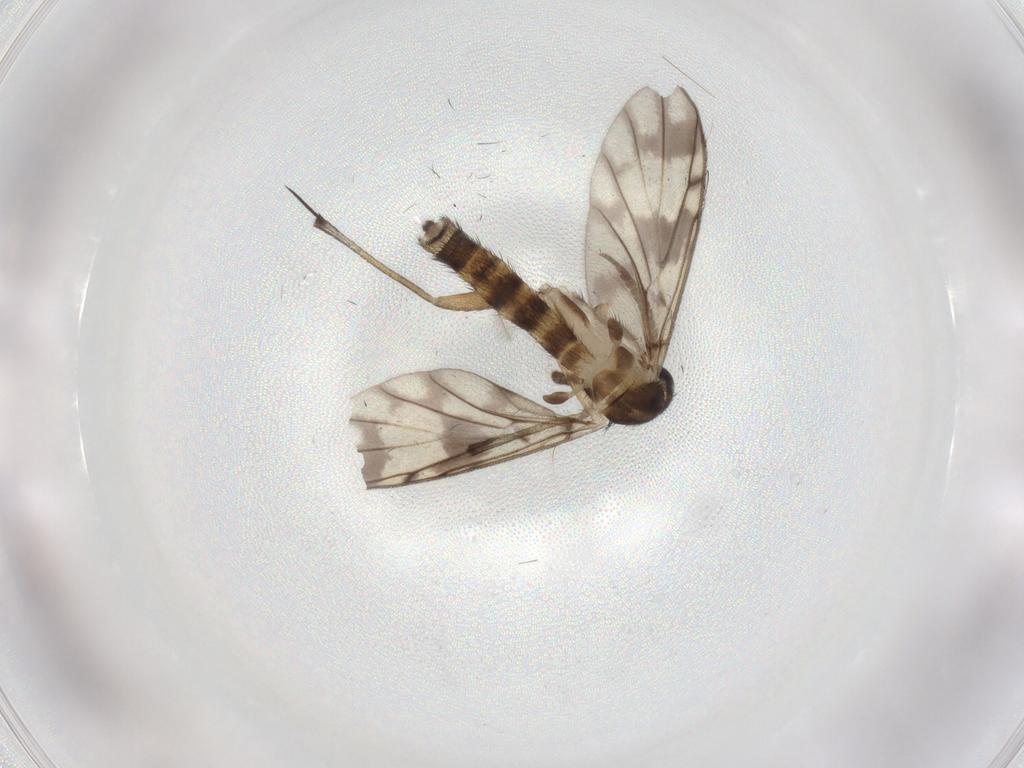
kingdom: Animalia
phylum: Arthropoda
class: Insecta
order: Diptera
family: Keroplatidae
